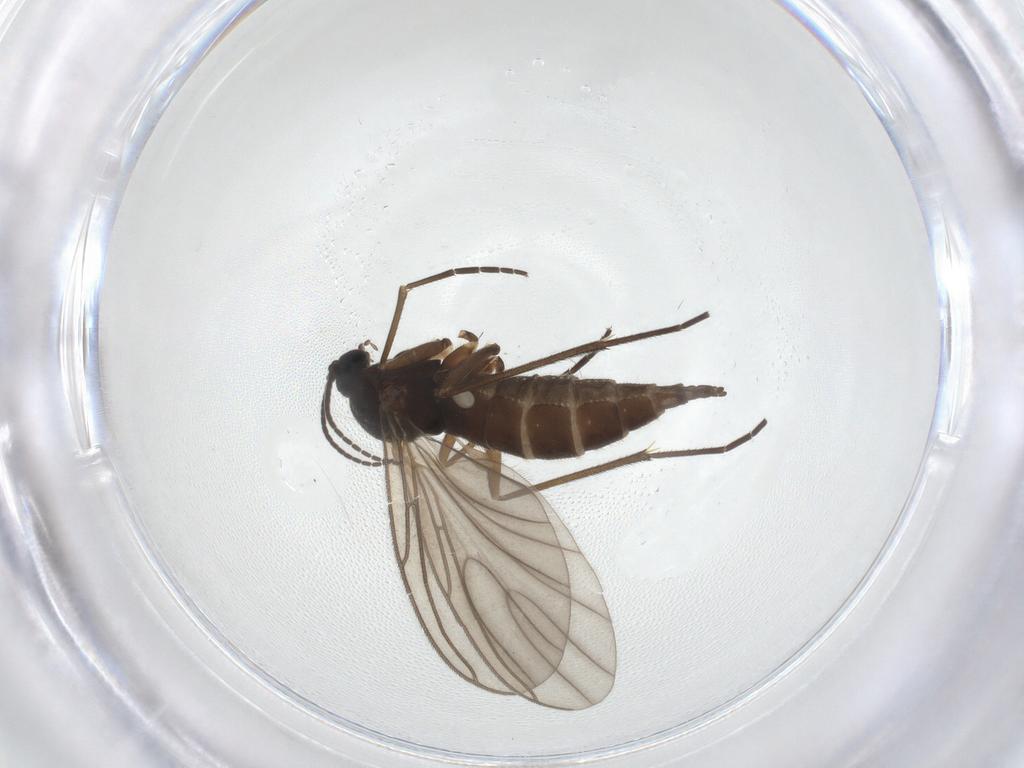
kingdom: Animalia
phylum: Arthropoda
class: Insecta
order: Diptera
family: Sciaridae
